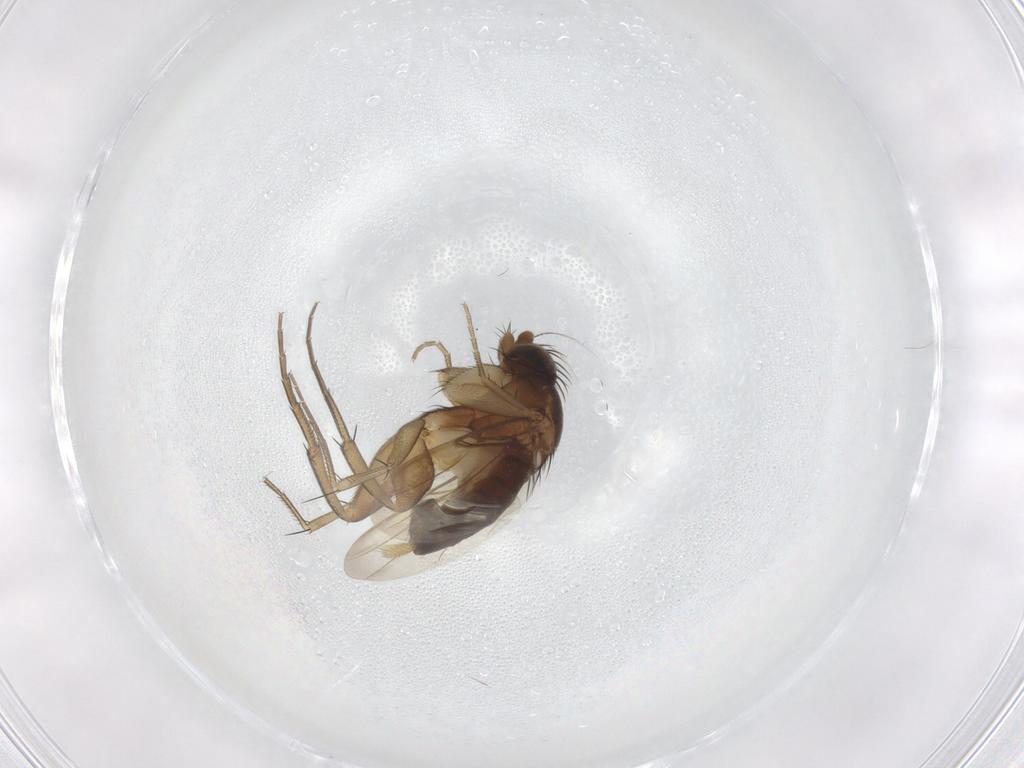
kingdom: Animalia
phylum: Arthropoda
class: Insecta
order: Diptera
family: Phoridae
